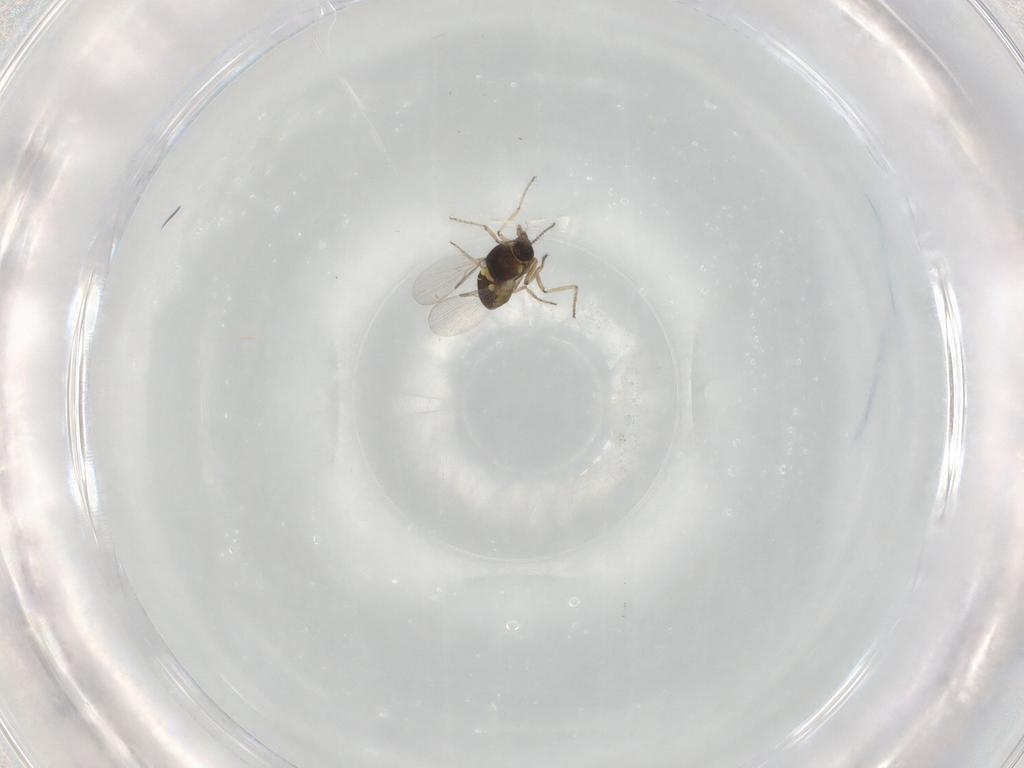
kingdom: Animalia
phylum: Arthropoda
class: Insecta
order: Diptera
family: Ceratopogonidae
